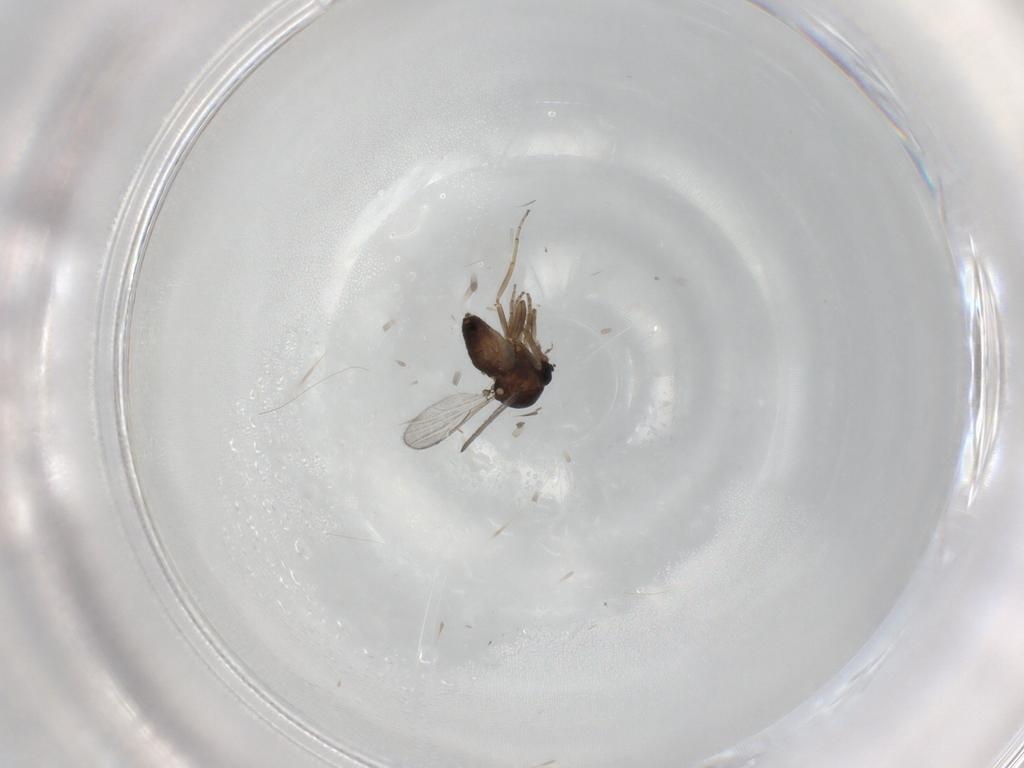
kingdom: Animalia
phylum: Arthropoda
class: Insecta
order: Diptera
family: Ceratopogonidae
